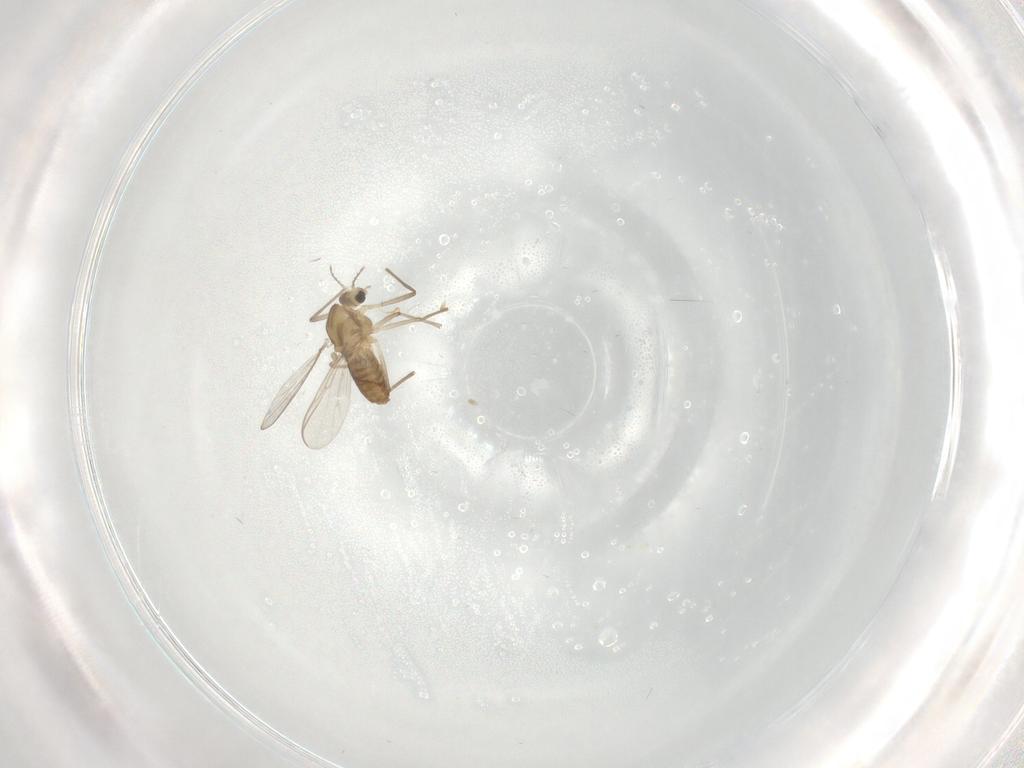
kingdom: Animalia
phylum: Arthropoda
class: Insecta
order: Diptera
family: Chironomidae
